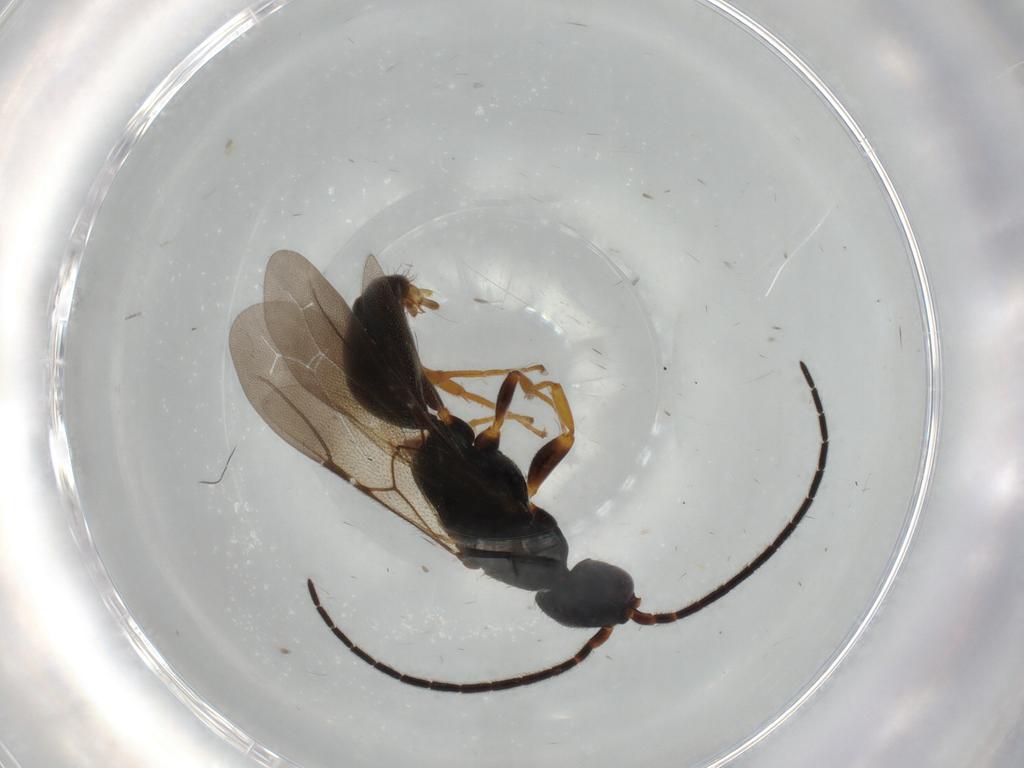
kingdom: Animalia
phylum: Arthropoda
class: Insecta
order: Hymenoptera
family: Bethylidae
